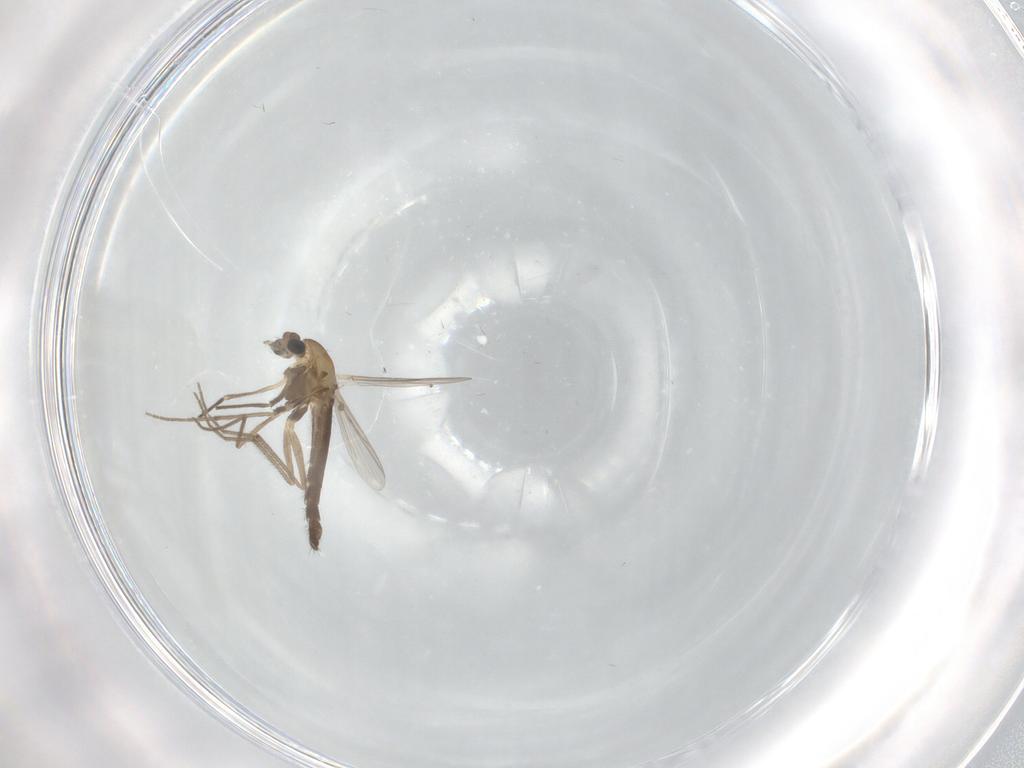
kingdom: Animalia
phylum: Arthropoda
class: Insecta
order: Diptera
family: Chironomidae
